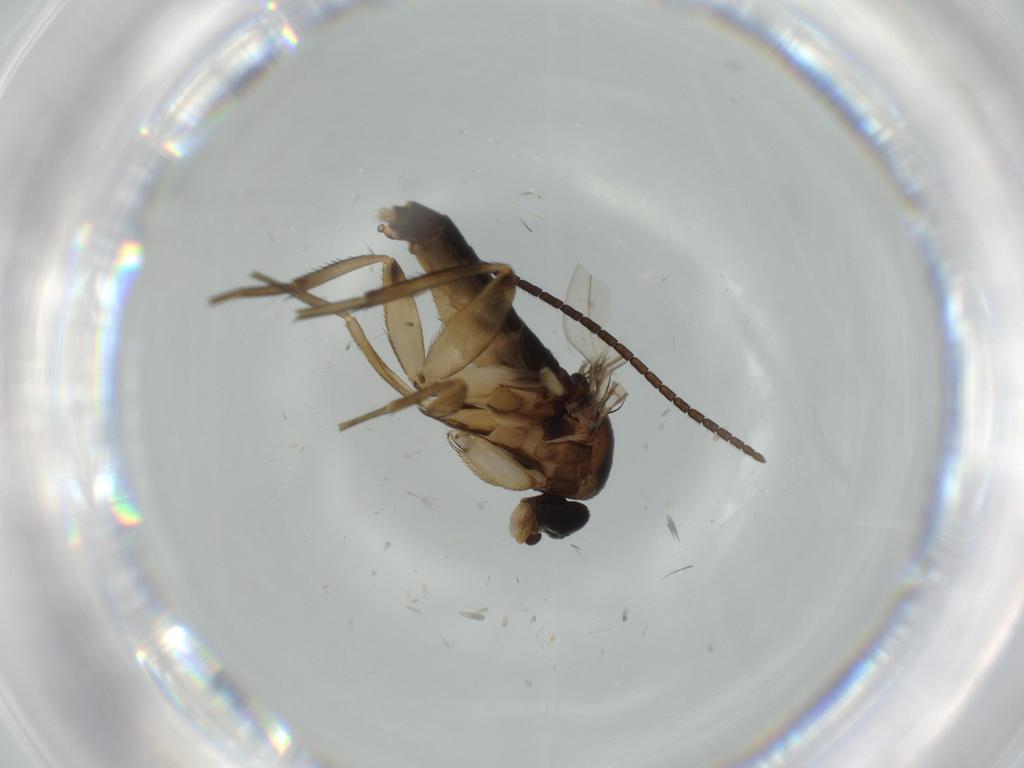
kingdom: Animalia
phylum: Arthropoda
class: Insecta
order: Diptera
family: Phoridae
